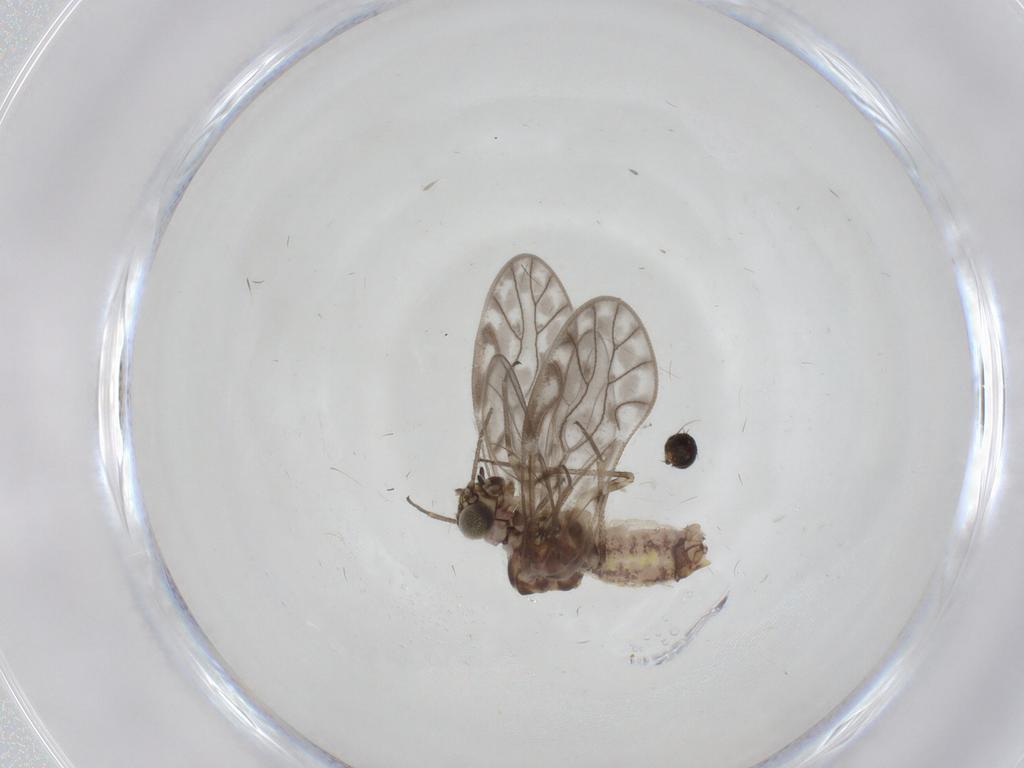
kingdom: Animalia
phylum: Arthropoda
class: Insecta
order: Psocodea
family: Philotarsidae
